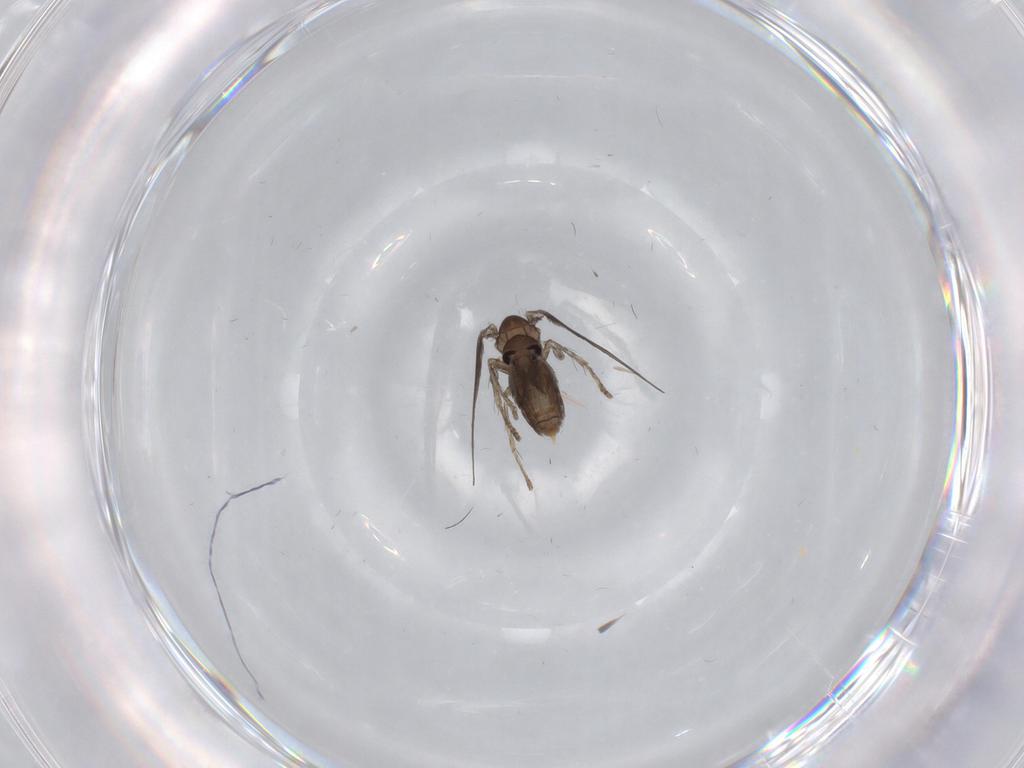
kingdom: Animalia
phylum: Arthropoda
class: Insecta
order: Diptera
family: Psychodidae
